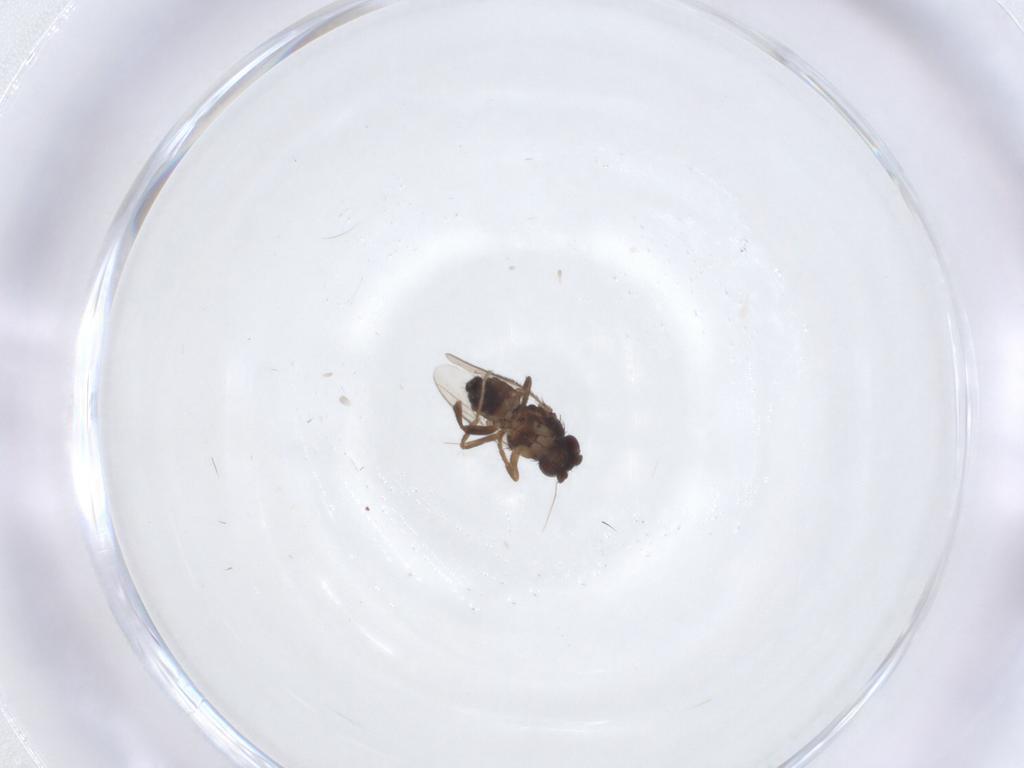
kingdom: Animalia
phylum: Arthropoda
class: Insecta
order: Diptera
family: Sphaeroceridae
